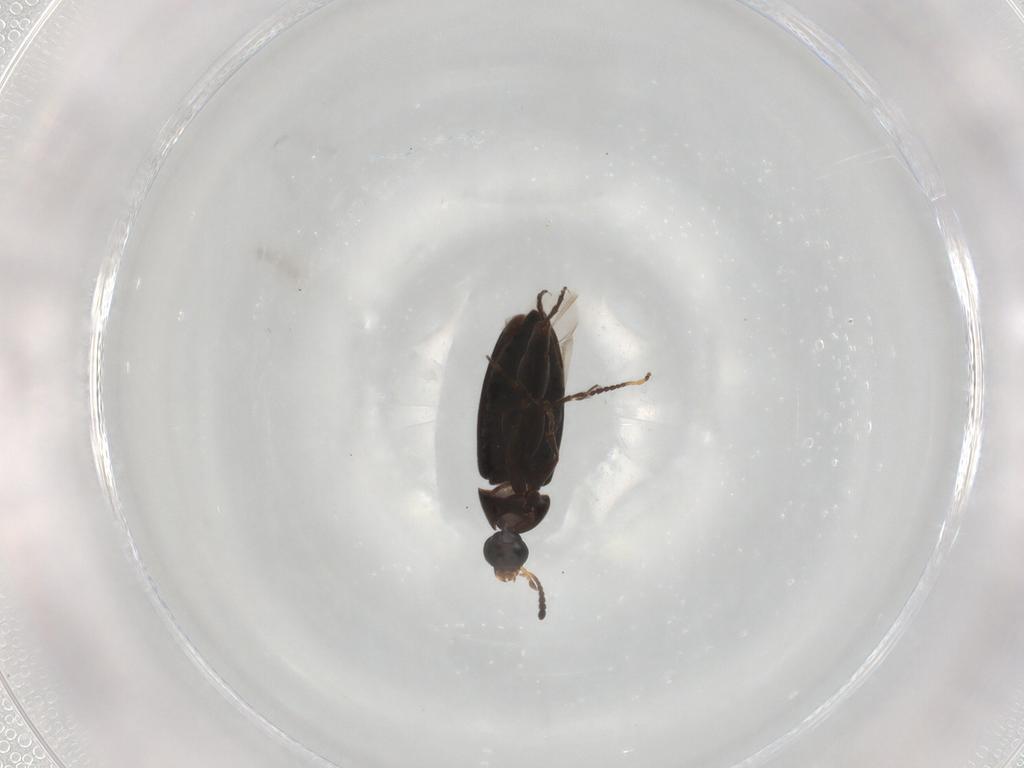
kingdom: Animalia
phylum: Arthropoda
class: Insecta
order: Coleoptera
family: Scraptiidae
